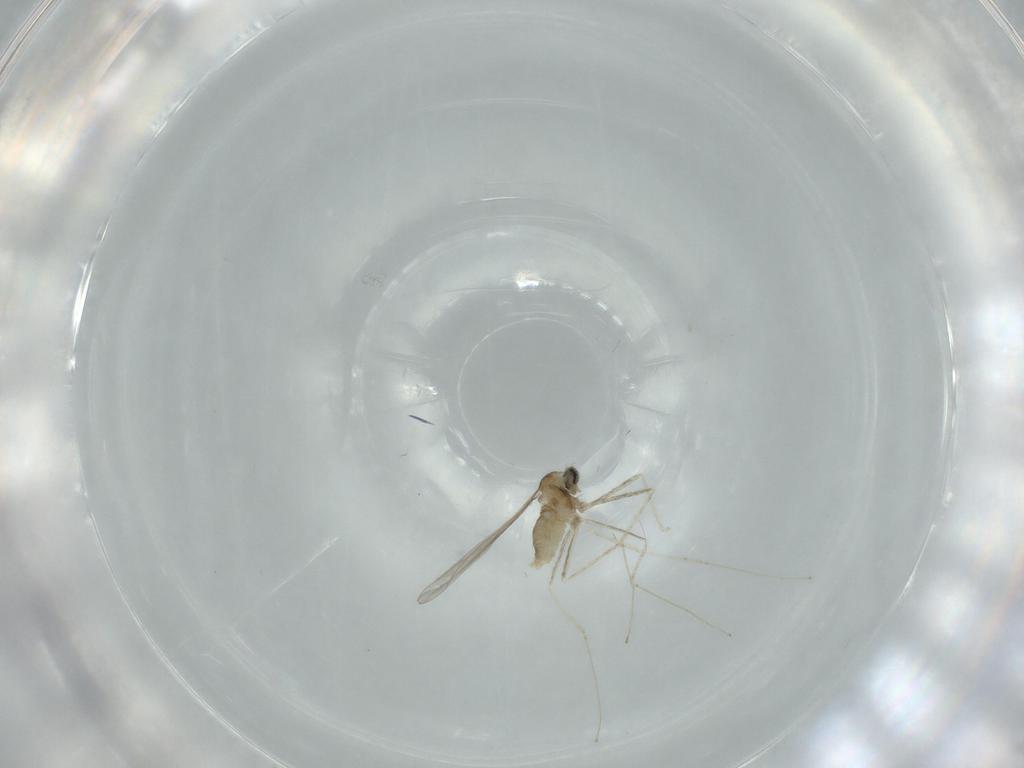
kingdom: Animalia
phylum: Arthropoda
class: Insecta
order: Diptera
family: Cecidomyiidae
